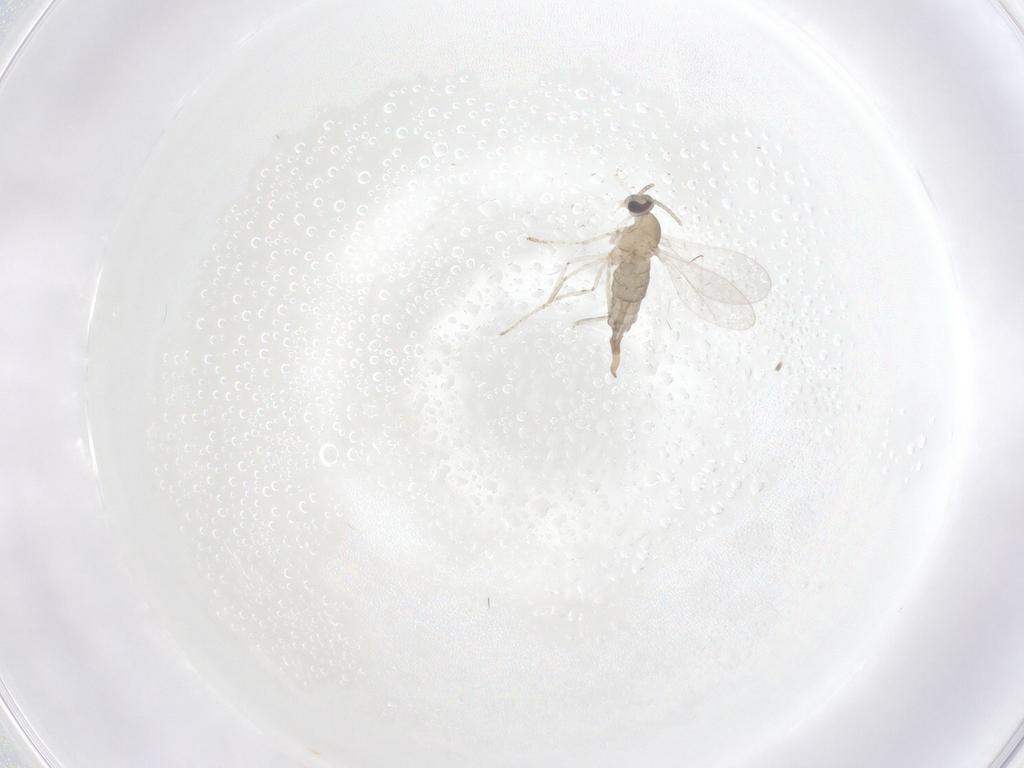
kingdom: Animalia
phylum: Arthropoda
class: Insecta
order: Diptera
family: Cecidomyiidae
